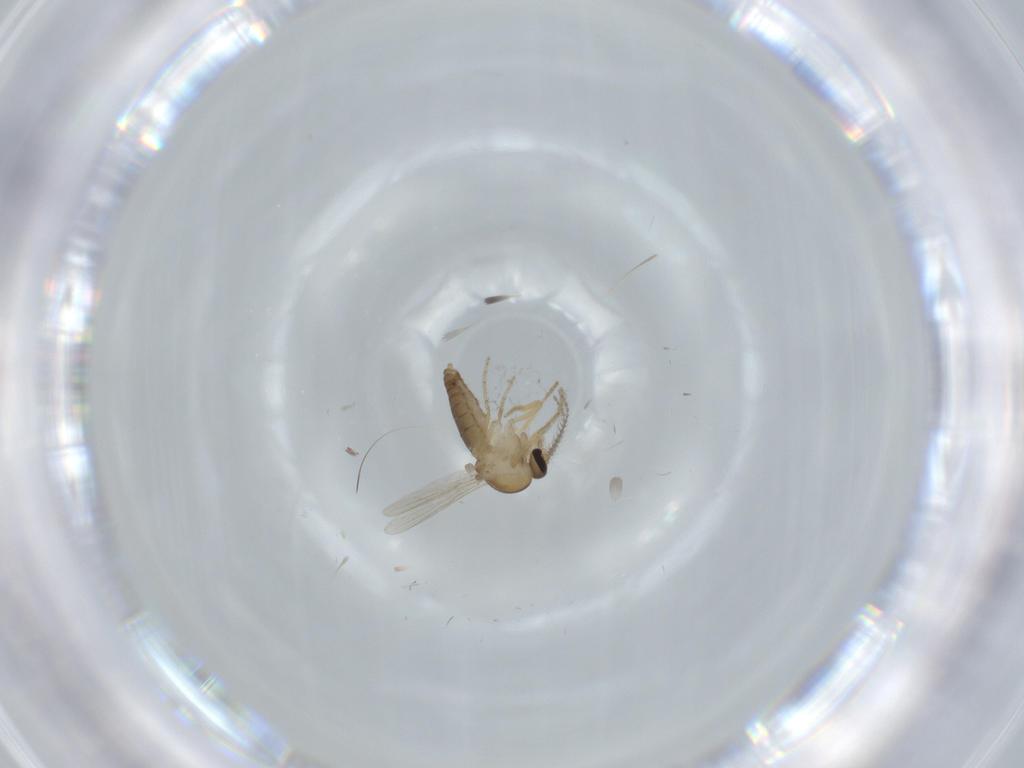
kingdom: Animalia
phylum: Arthropoda
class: Insecta
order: Diptera
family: Ceratopogonidae
